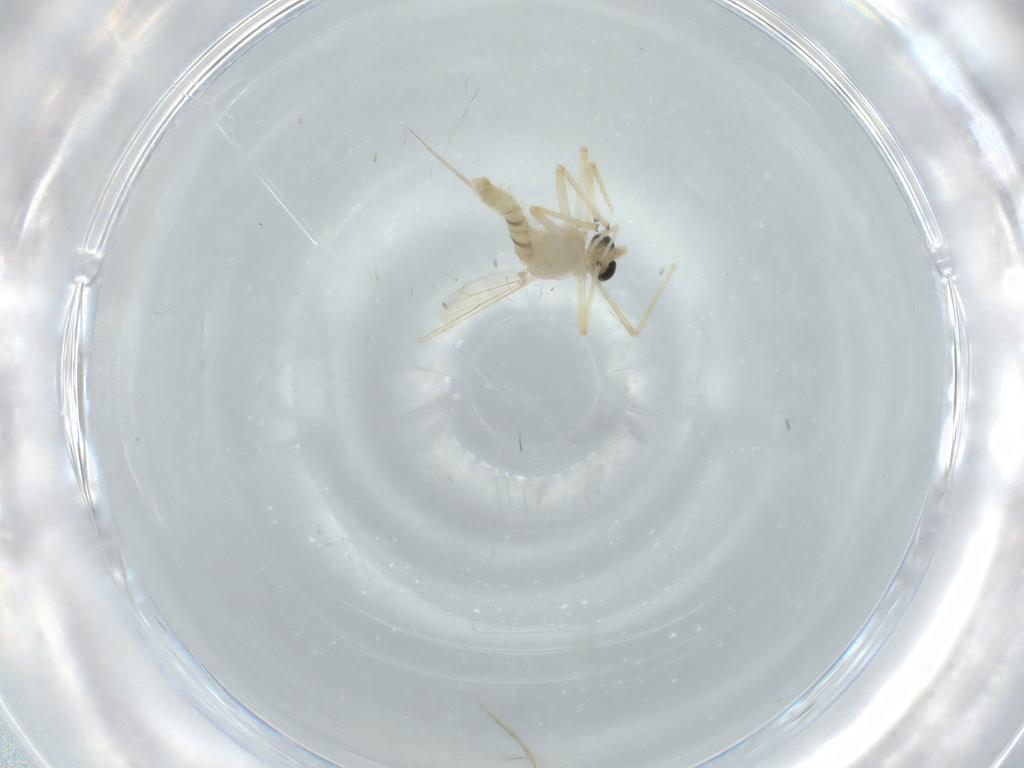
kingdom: Animalia
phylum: Arthropoda
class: Insecta
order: Diptera
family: Chironomidae
